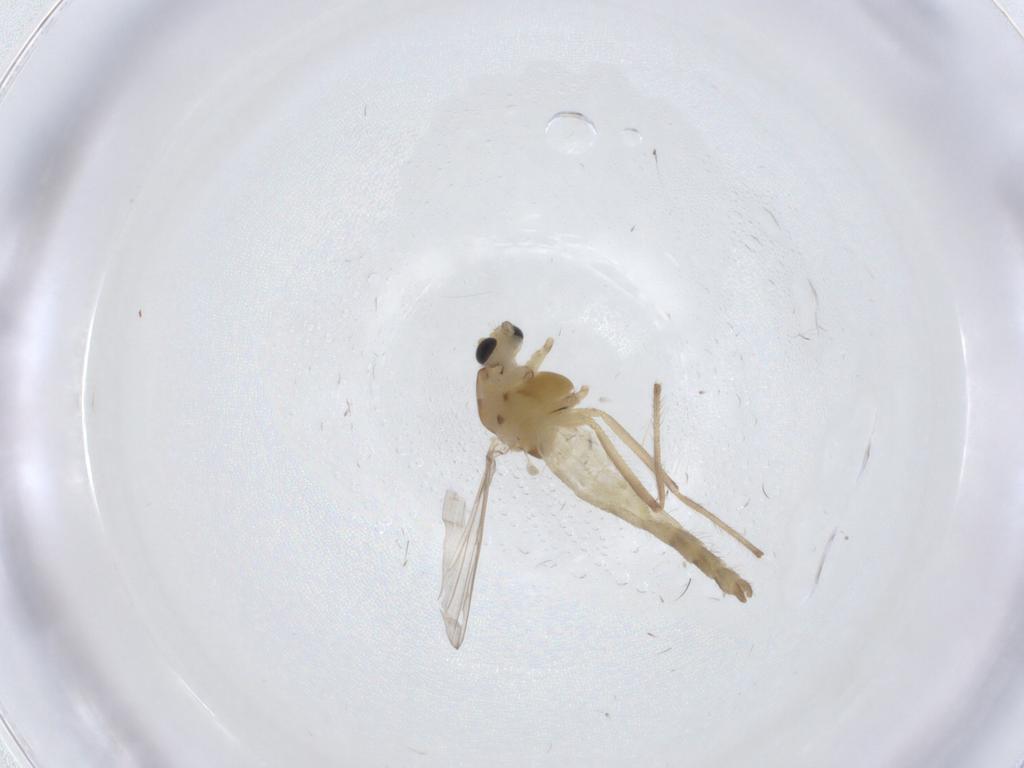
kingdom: Animalia
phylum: Arthropoda
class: Insecta
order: Diptera
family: Chironomidae
